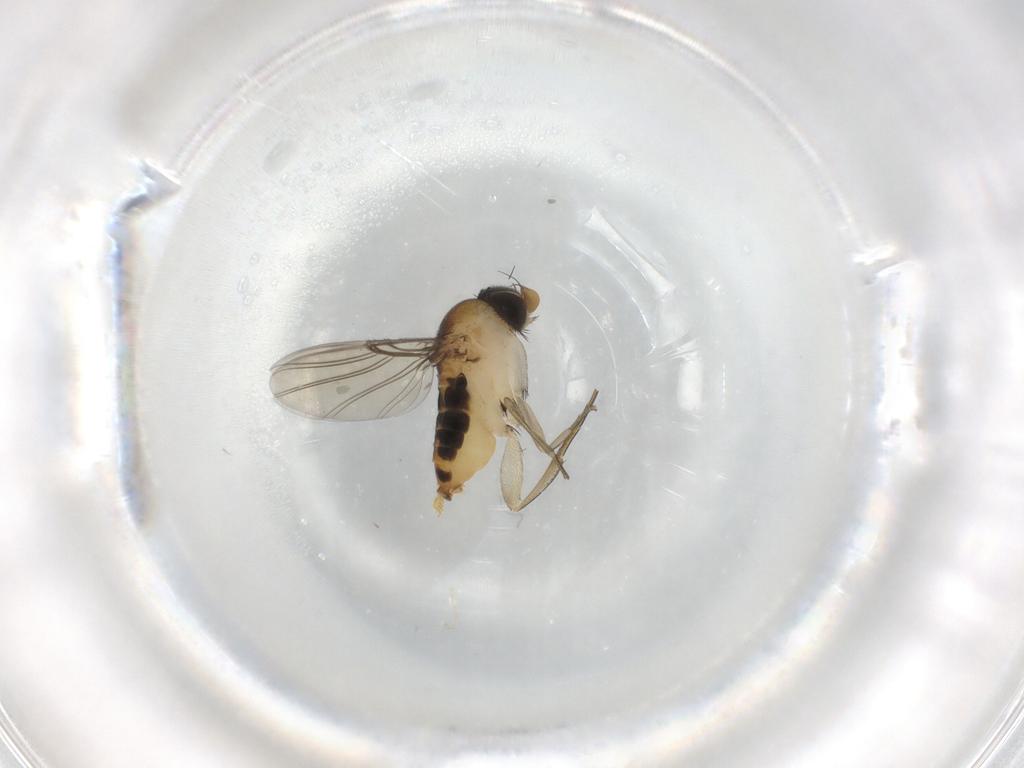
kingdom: Animalia
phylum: Arthropoda
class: Insecta
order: Diptera
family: Phoridae
